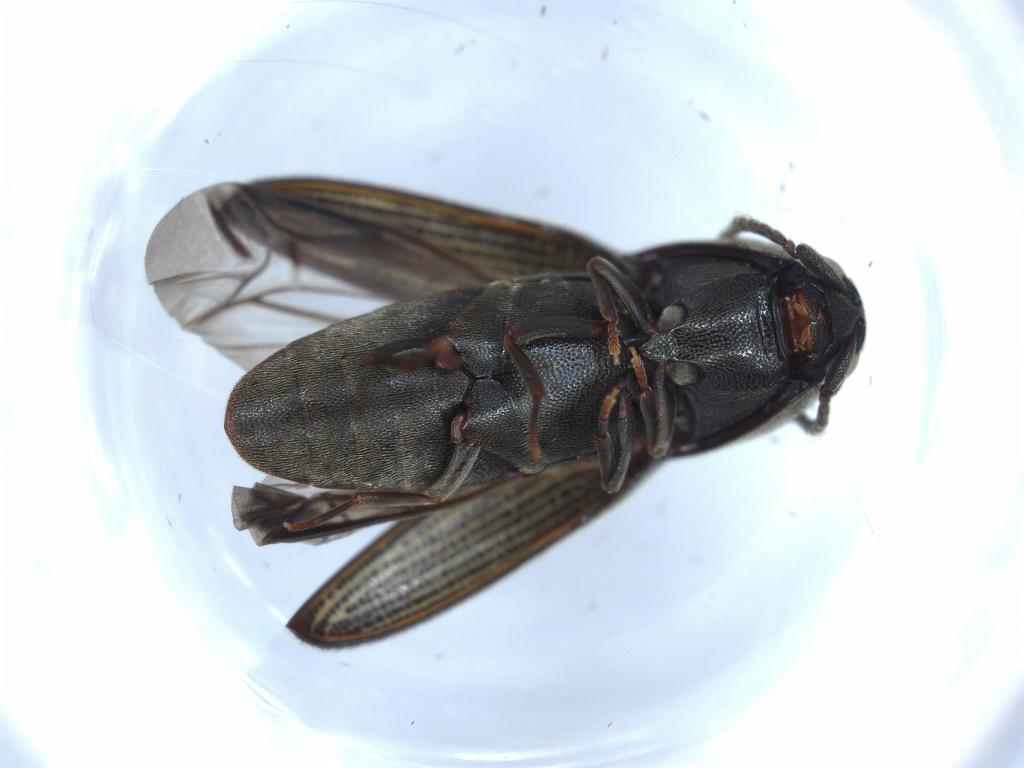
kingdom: Animalia
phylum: Arthropoda
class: Insecta
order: Coleoptera
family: Eucnemidae
